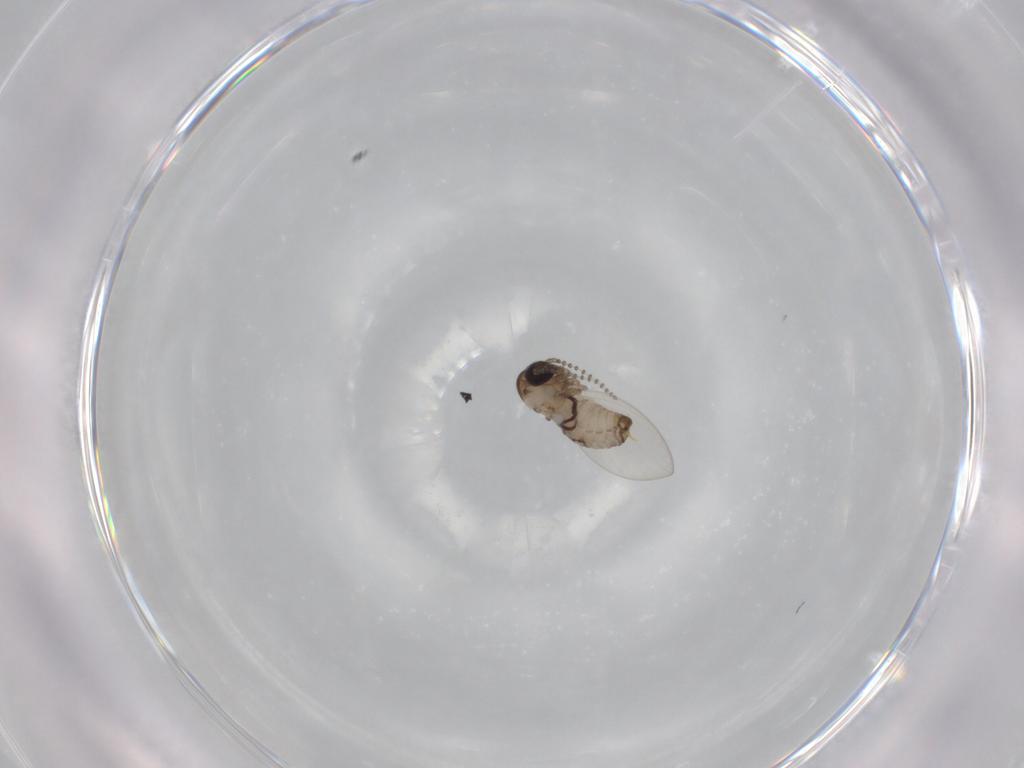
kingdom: Animalia
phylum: Arthropoda
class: Insecta
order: Diptera
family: Psychodidae
